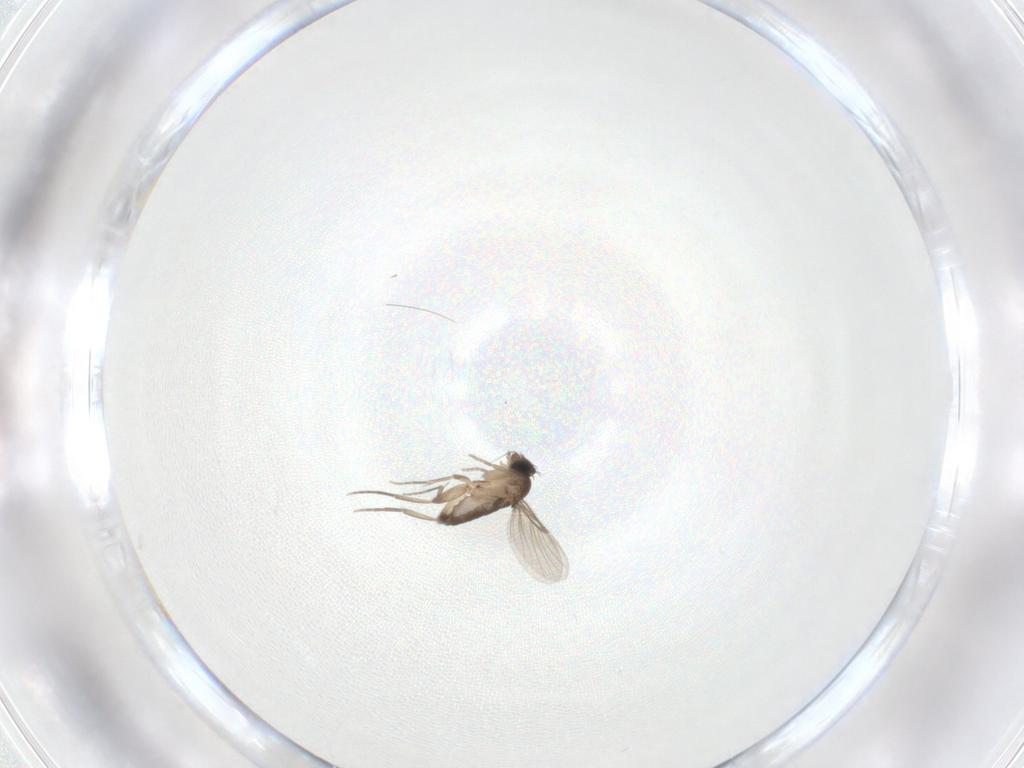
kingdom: Animalia
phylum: Arthropoda
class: Insecta
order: Diptera
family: Phoridae
